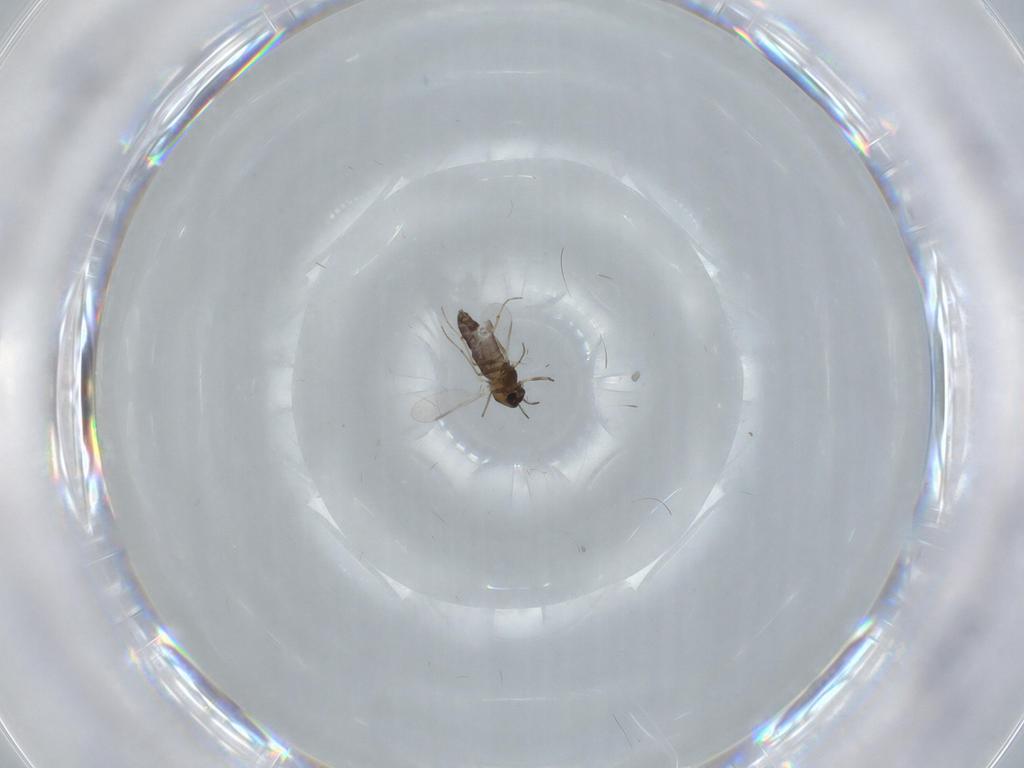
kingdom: Animalia
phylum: Arthropoda
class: Insecta
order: Diptera
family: Chironomidae
